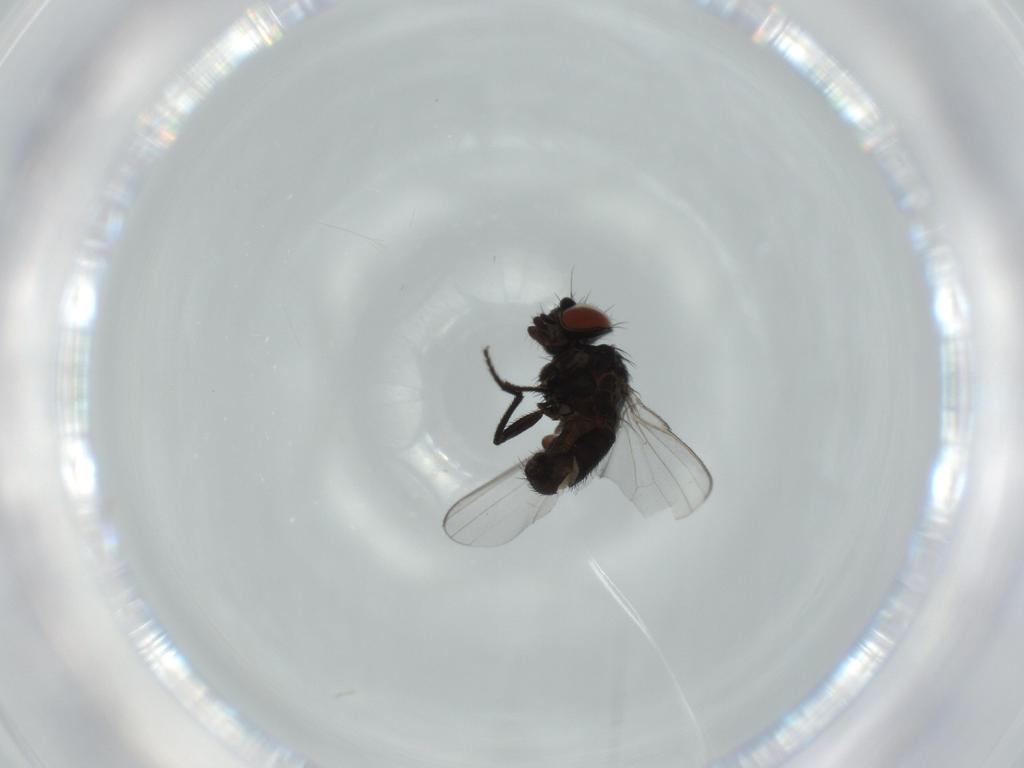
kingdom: Animalia
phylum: Arthropoda
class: Insecta
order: Diptera
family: Milichiidae
